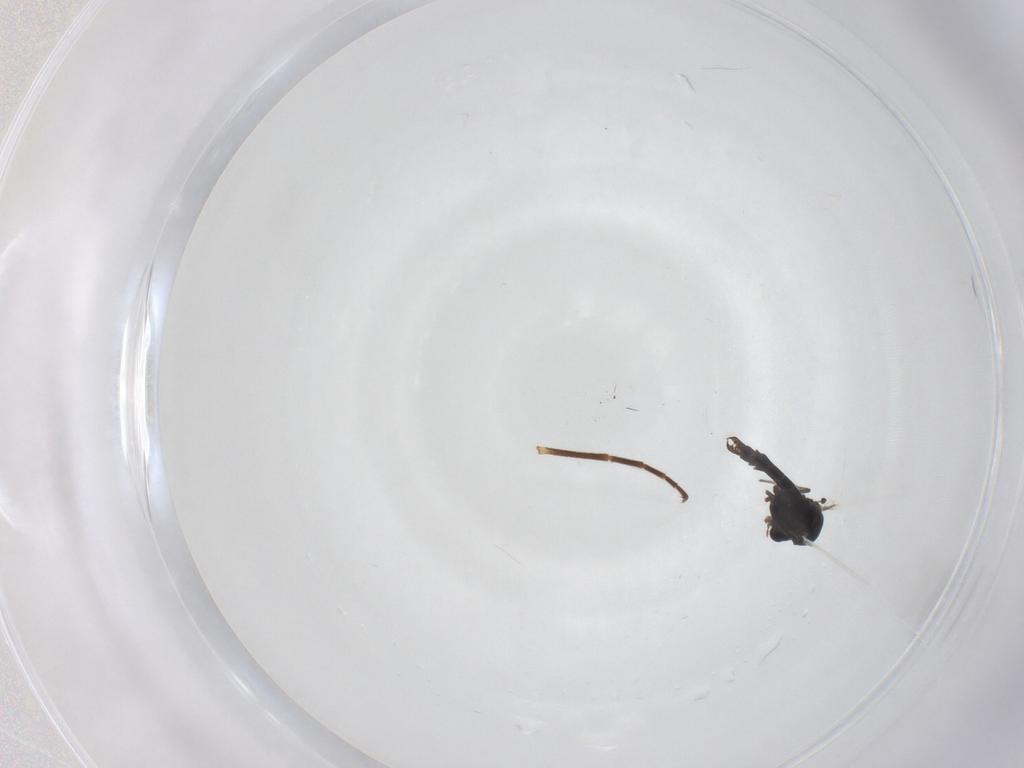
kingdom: Animalia
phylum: Arthropoda
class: Insecta
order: Diptera
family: Chironomidae
